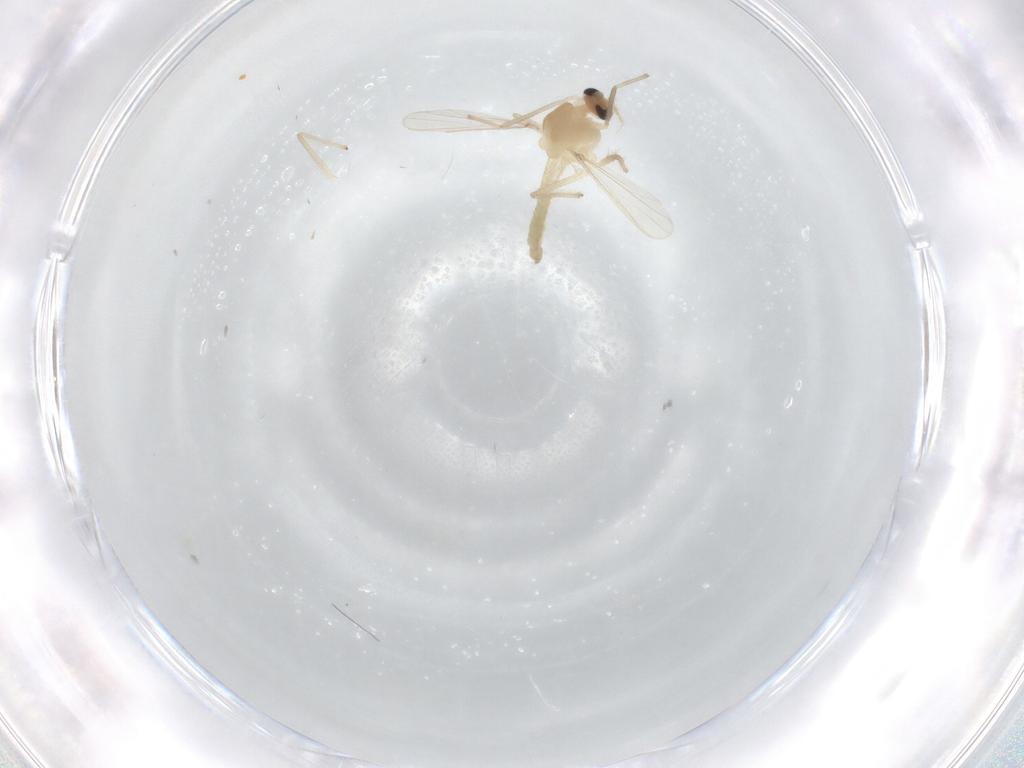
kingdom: Animalia
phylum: Arthropoda
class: Insecta
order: Diptera
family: Chironomidae
